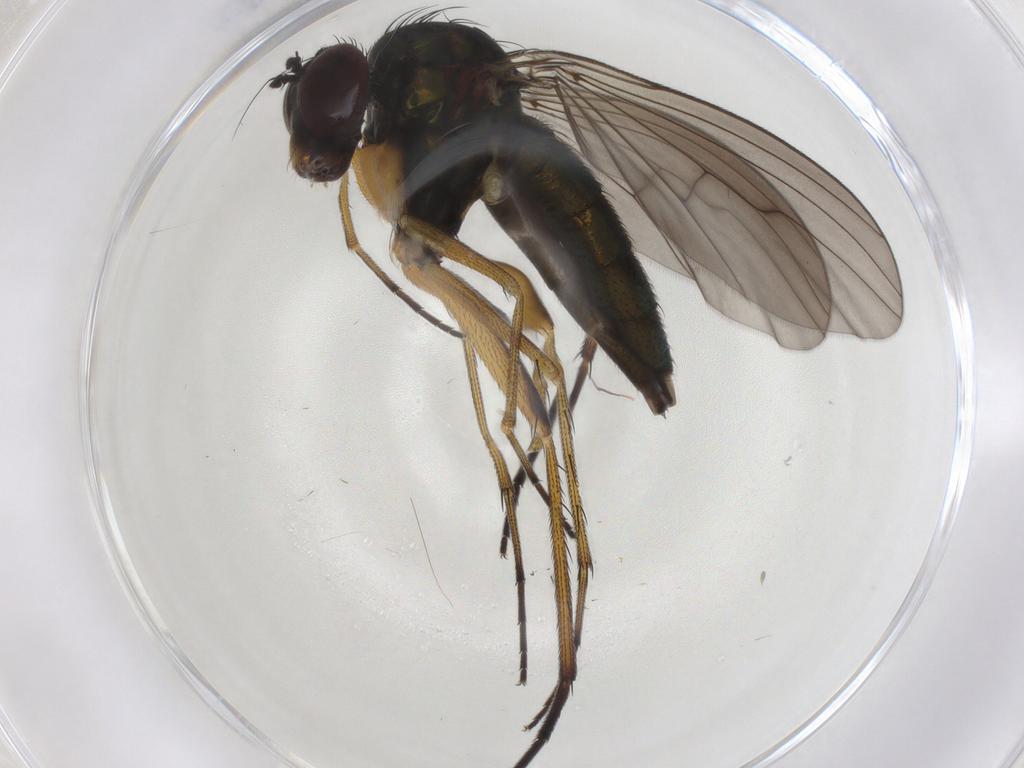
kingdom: Animalia
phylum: Arthropoda
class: Insecta
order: Diptera
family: Dolichopodidae
